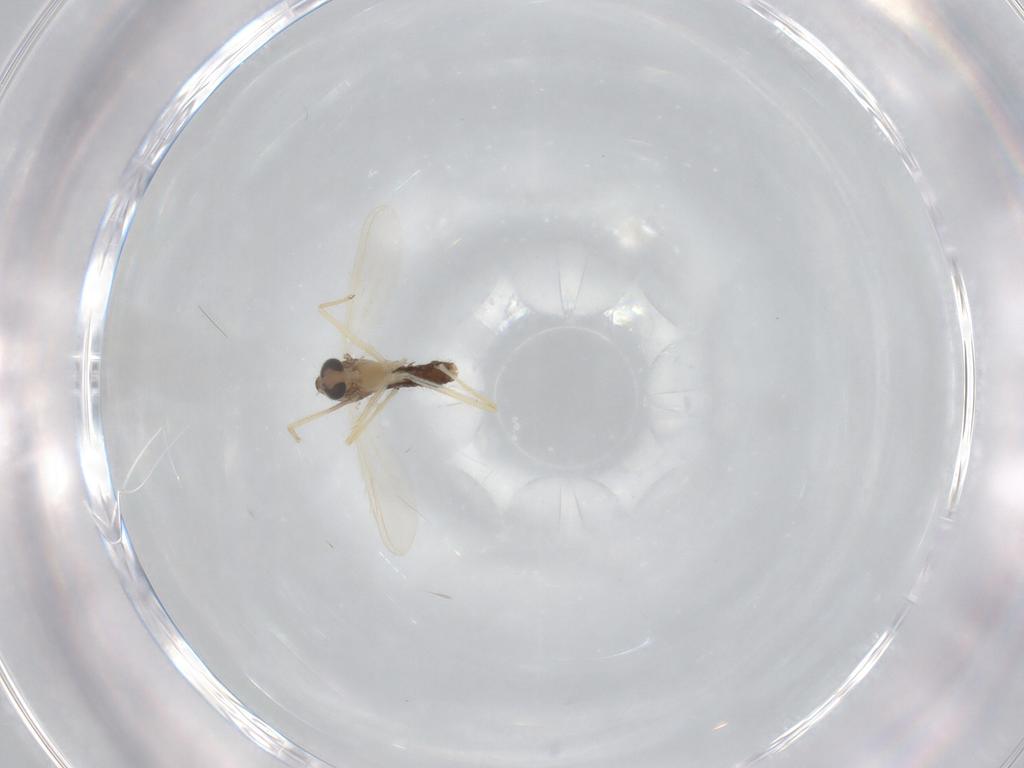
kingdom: Animalia
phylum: Arthropoda
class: Insecta
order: Diptera
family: Chironomidae
